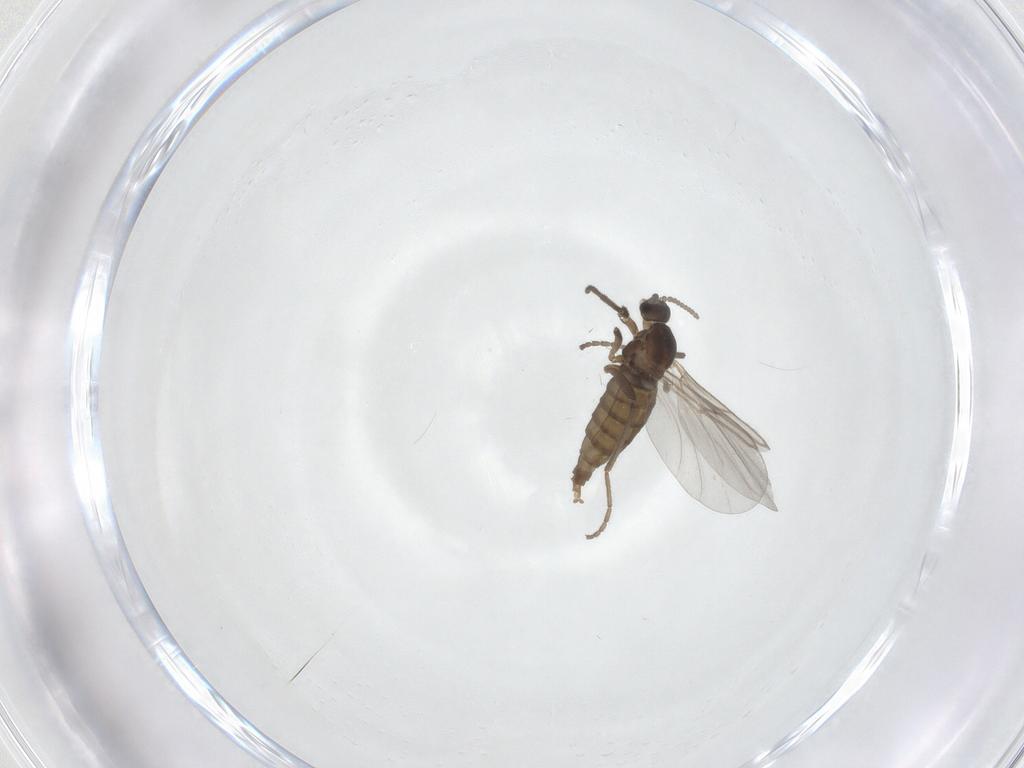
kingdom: Animalia
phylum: Arthropoda
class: Insecta
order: Diptera
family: Cecidomyiidae
